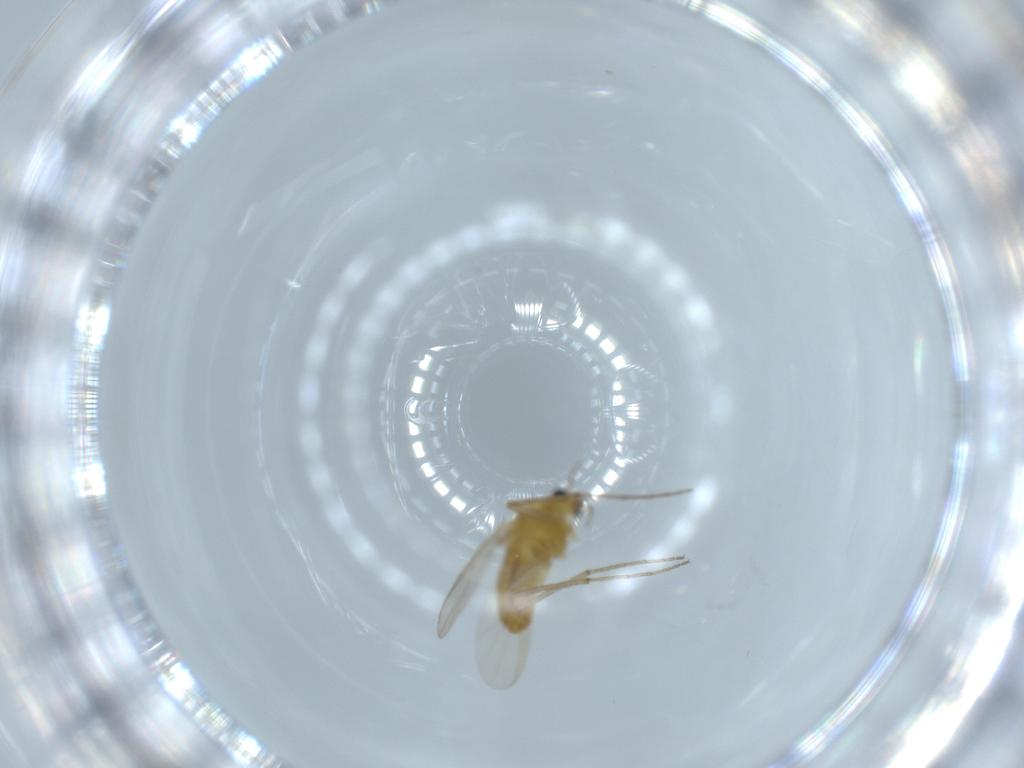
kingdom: Animalia
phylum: Arthropoda
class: Insecta
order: Diptera
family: Chironomidae
